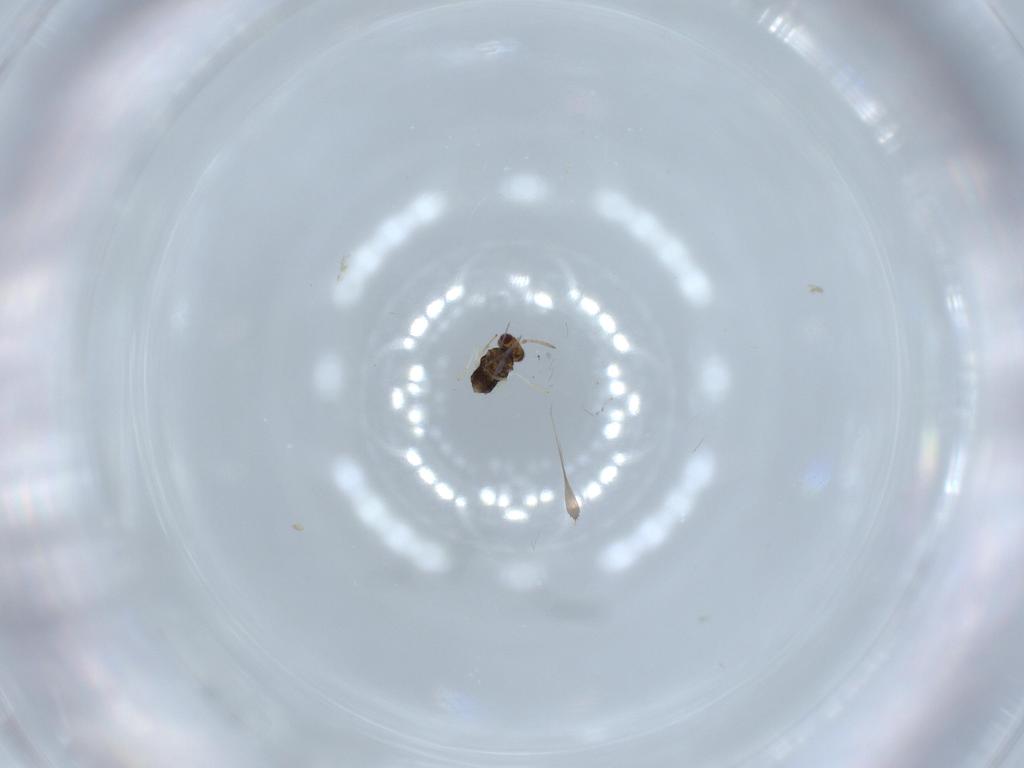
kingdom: Animalia
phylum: Arthropoda
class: Insecta
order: Hymenoptera
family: Aphelinidae
